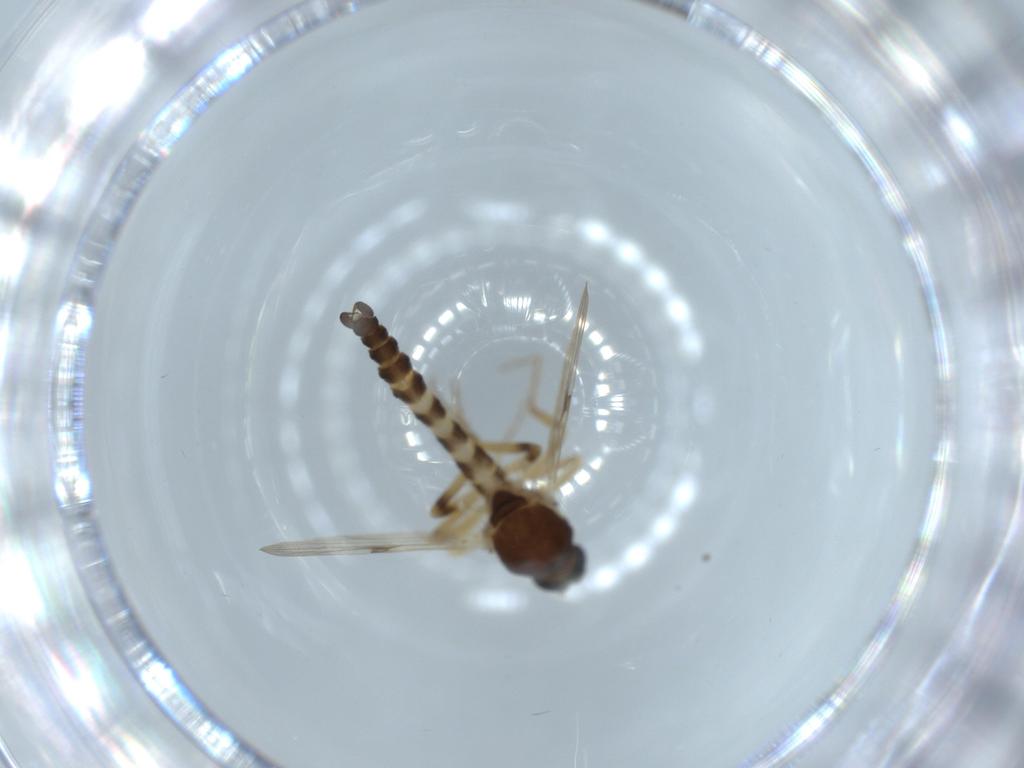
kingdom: Animalia
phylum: Arthropoda
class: Insecta
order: Diptera
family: Ceratopogonidae
